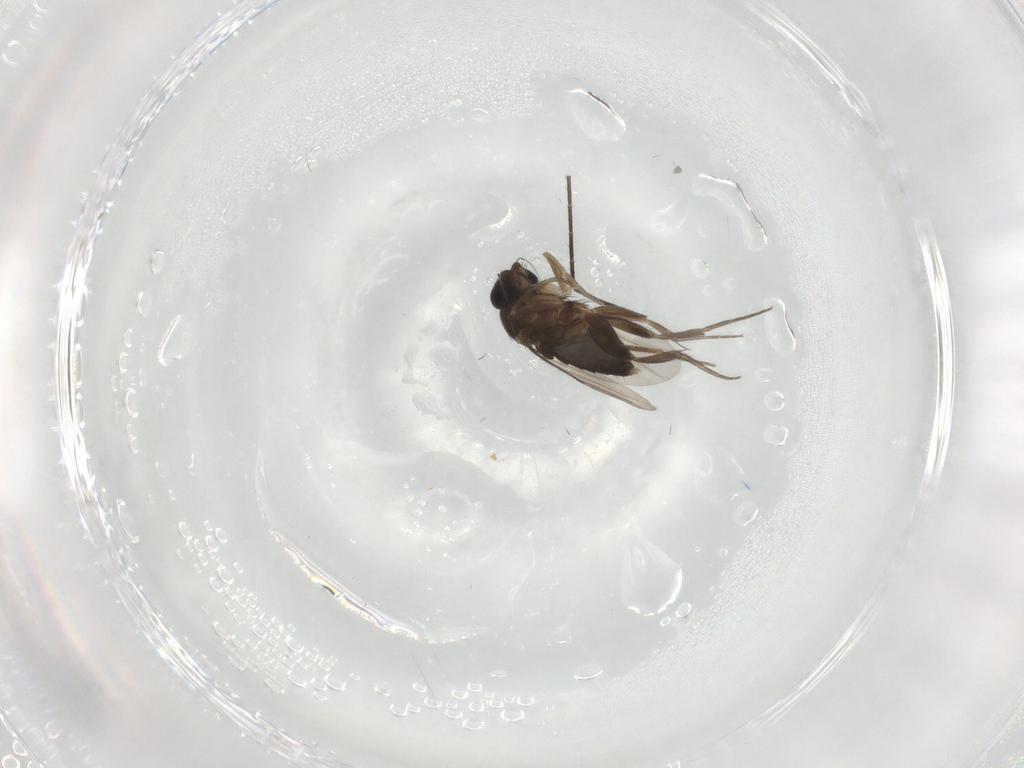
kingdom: Animalia
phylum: Arthropoda
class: Insecta
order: Diptera
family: Phoridae
